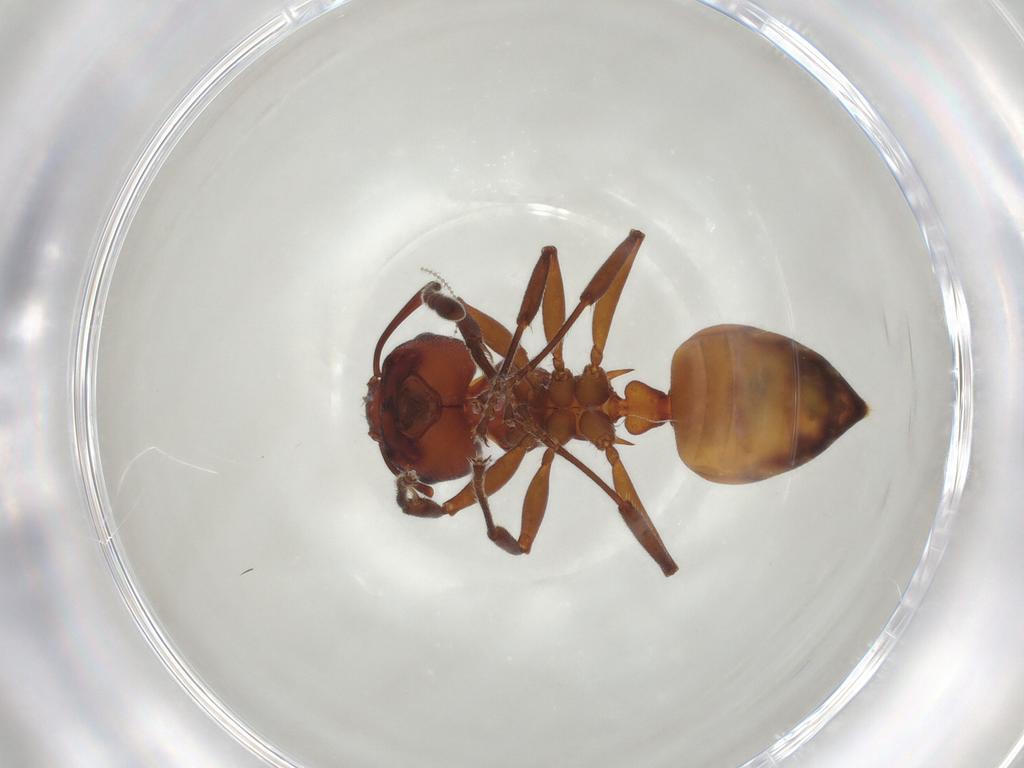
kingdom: Animalia
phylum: Arthropoda
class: Insecta
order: Hymenoptera
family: Formicidae
